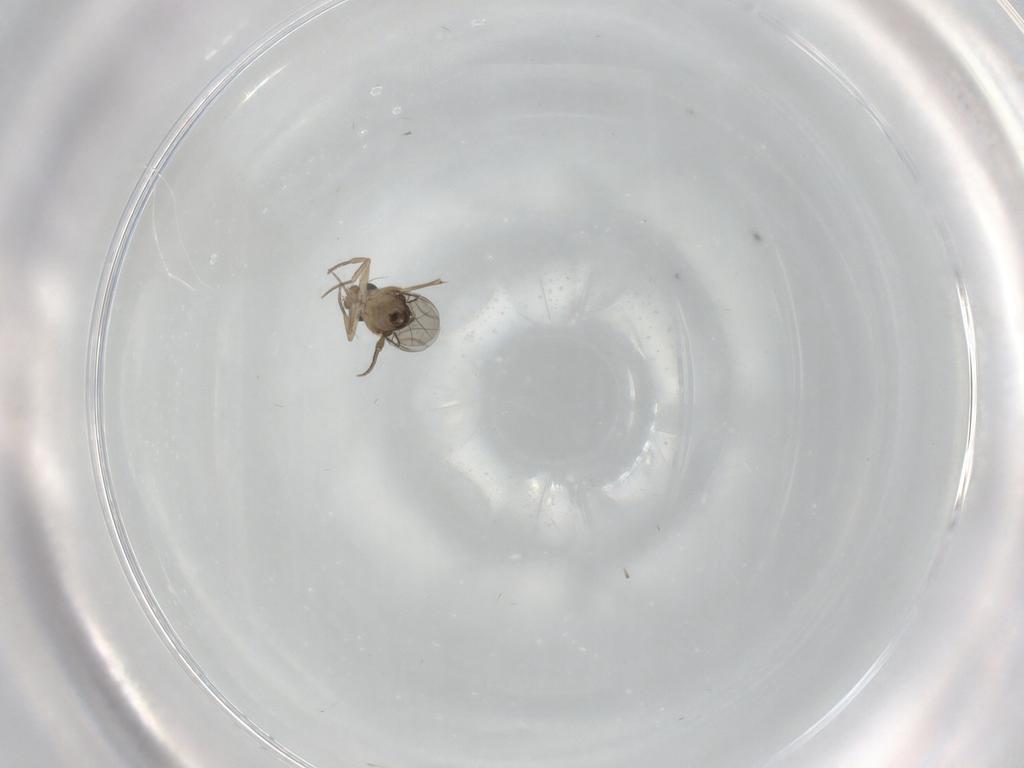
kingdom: Animalia
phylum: Arthropoda
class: Insecta
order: Diptera
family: Phoridae
